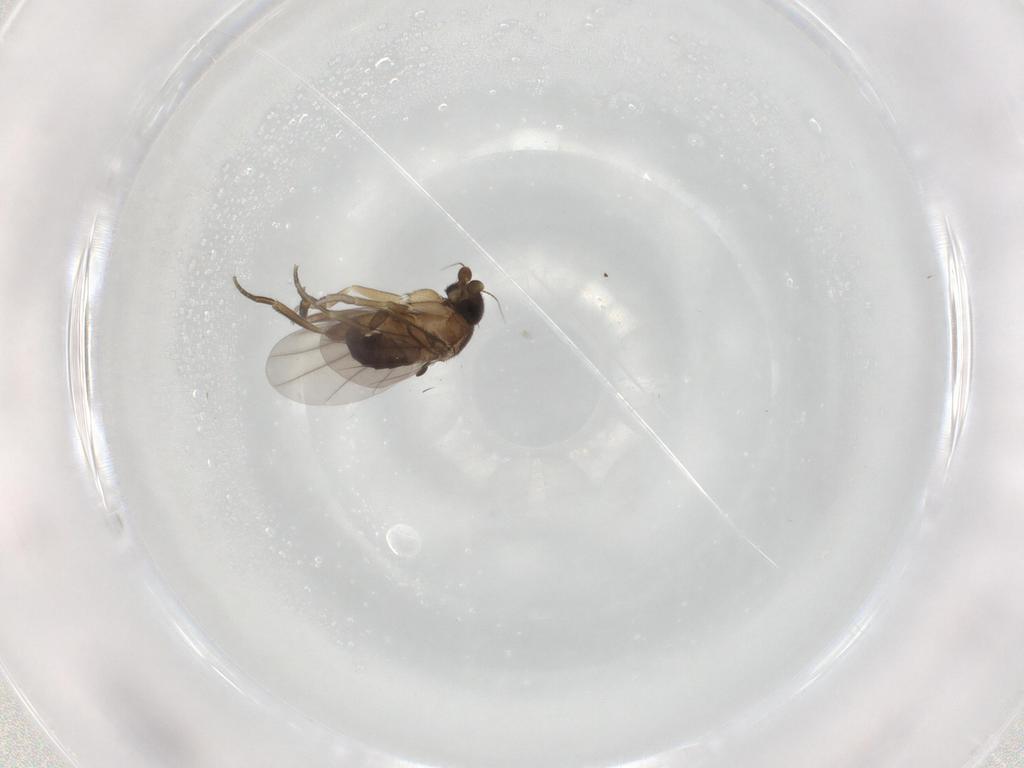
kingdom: Animalia
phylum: Arthropoda
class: Insecta
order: Diptera
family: Phoridae
